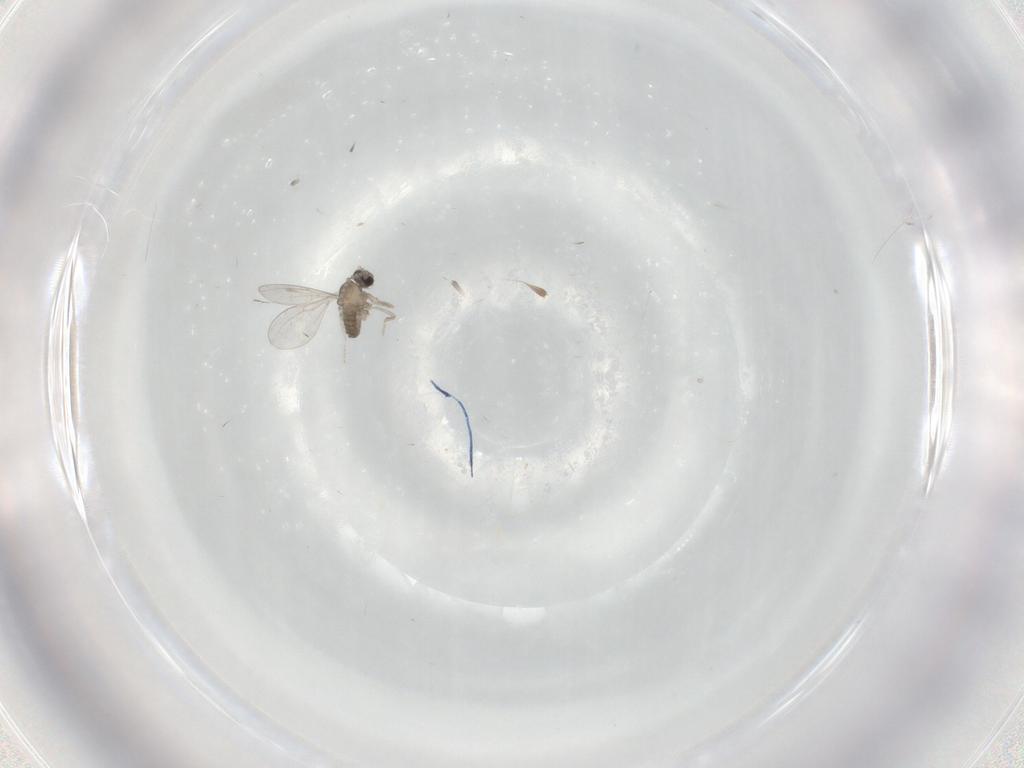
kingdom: Animalia
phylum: Arthropoda
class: Insecta
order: Diptera
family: Cecidomyiidae
